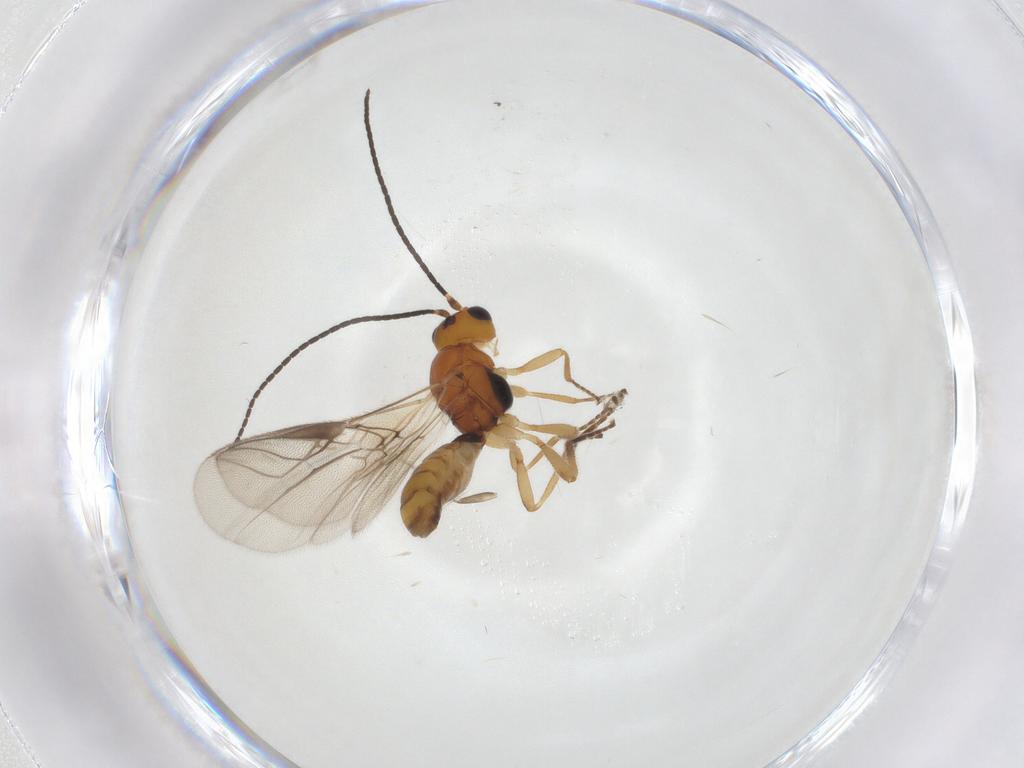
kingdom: Animalia
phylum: Arthropoda
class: Insecta
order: Hymenoptera
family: Braconidae
